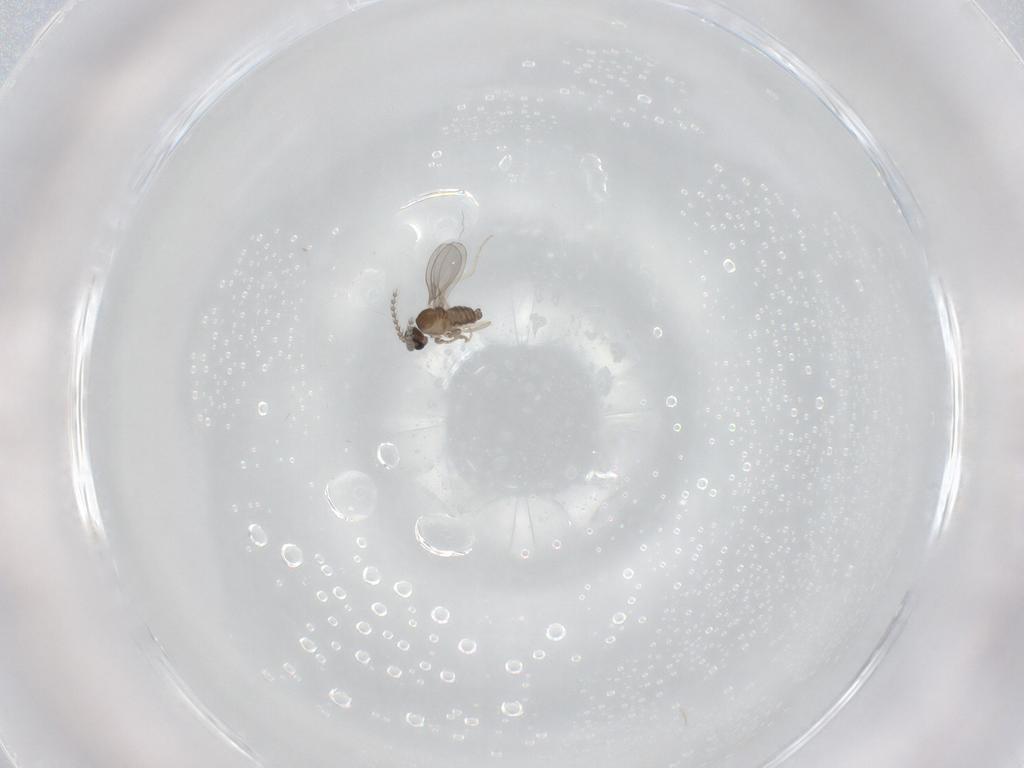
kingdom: Animalia
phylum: Arthropoda
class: Insecta
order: Diptera
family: Cecidomyiidae
